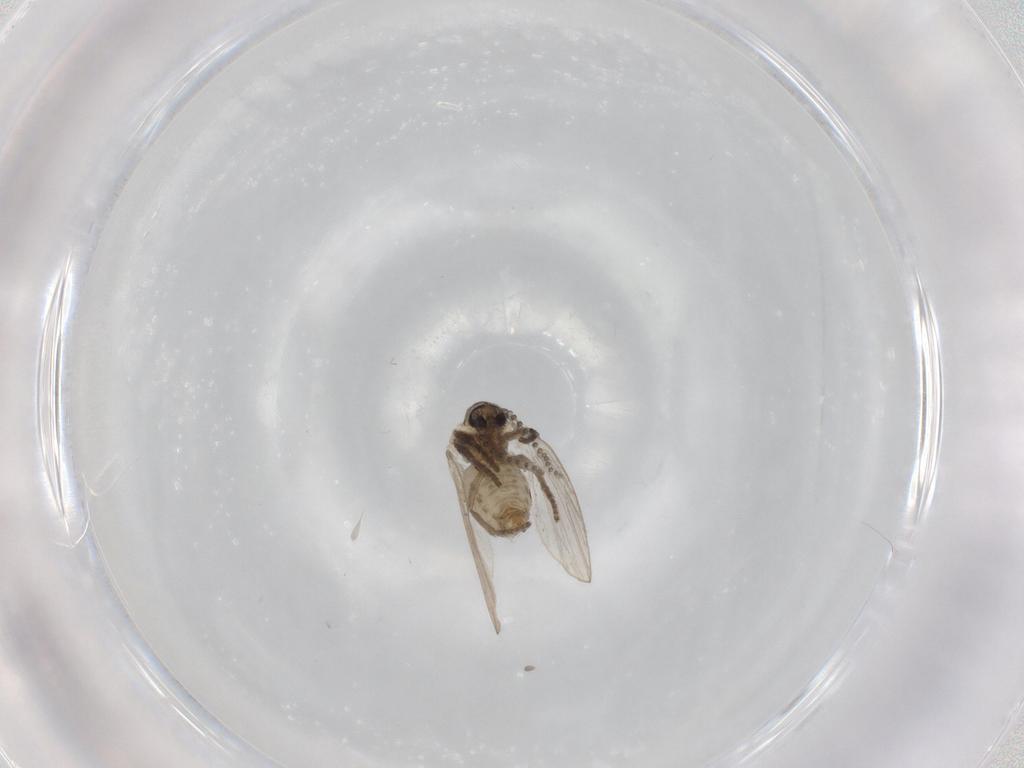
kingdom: Animalia
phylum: Arthropoda
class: Insecta
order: Diptera
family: Psychodidae
